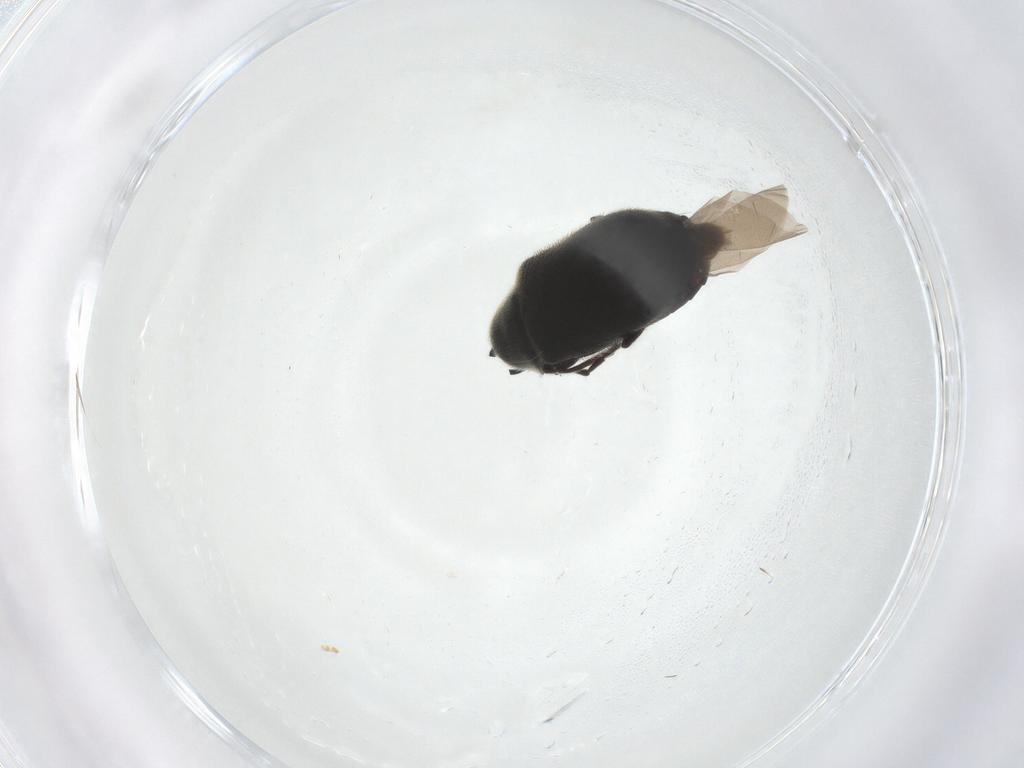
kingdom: Animalia
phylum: Arthropoda
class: Insecta
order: Coleoptera
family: Ptinidae
